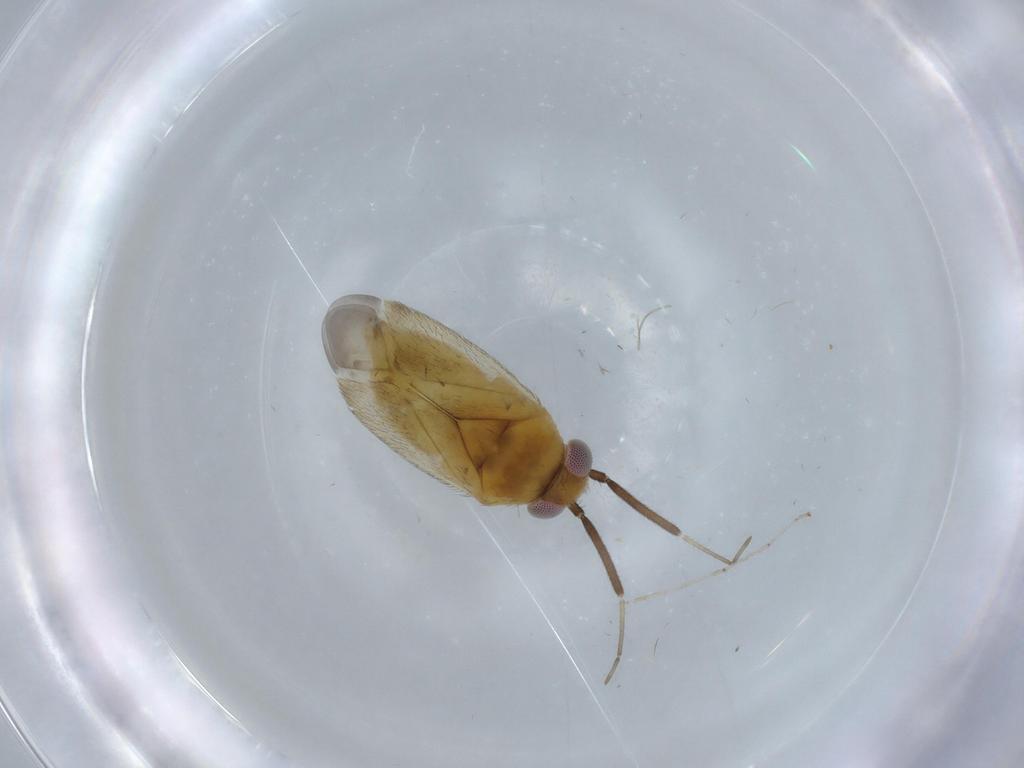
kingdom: Animalia
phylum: Arthropoda
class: Insecta
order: Hemiptera
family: Miridae
